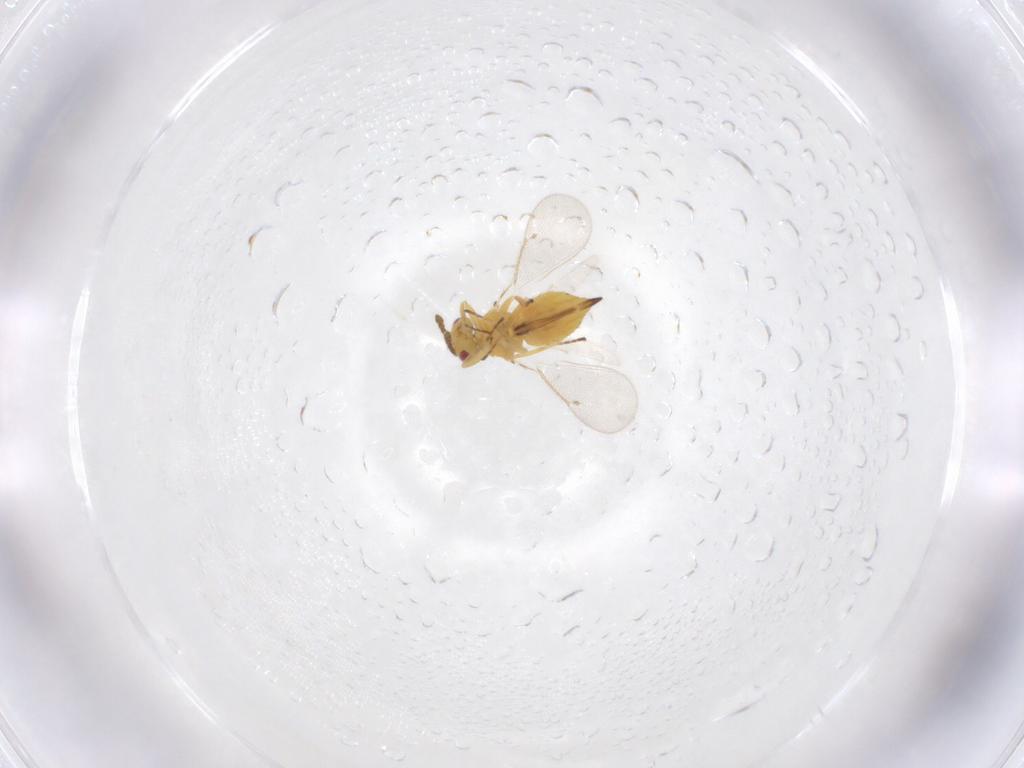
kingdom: Animalia
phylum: Arthropoda
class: Insecta
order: Hymenoptera
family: Eulophidae
